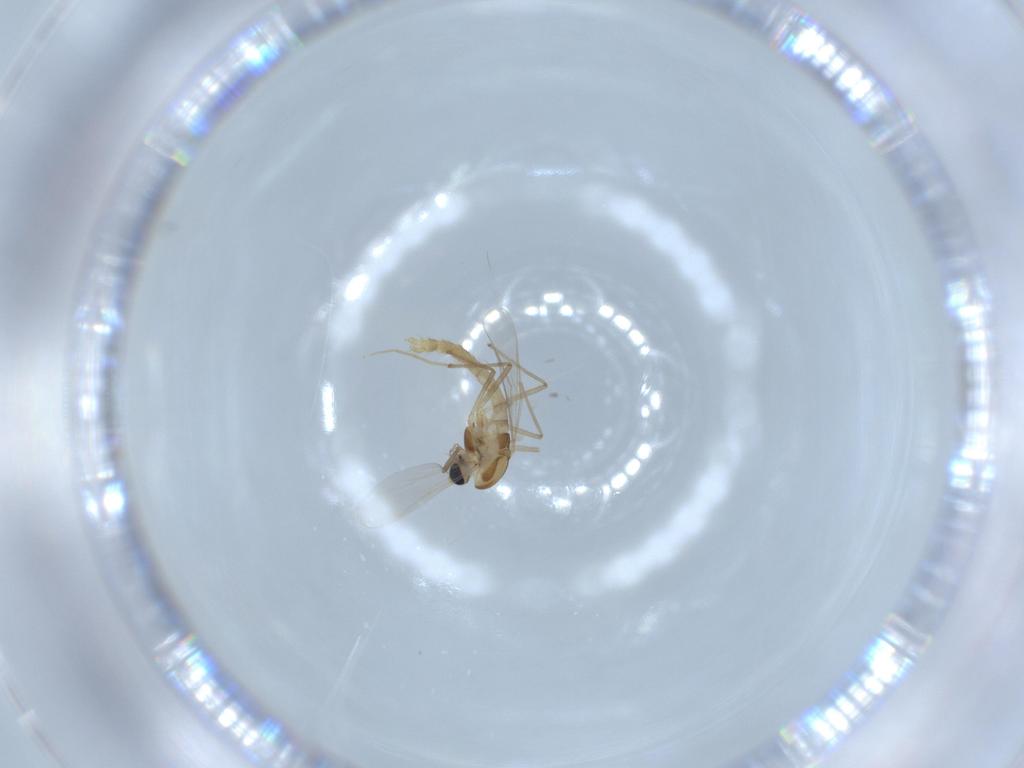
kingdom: Animalia
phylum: Arthropoda
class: Insecta
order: Diptera
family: Chironomidae
